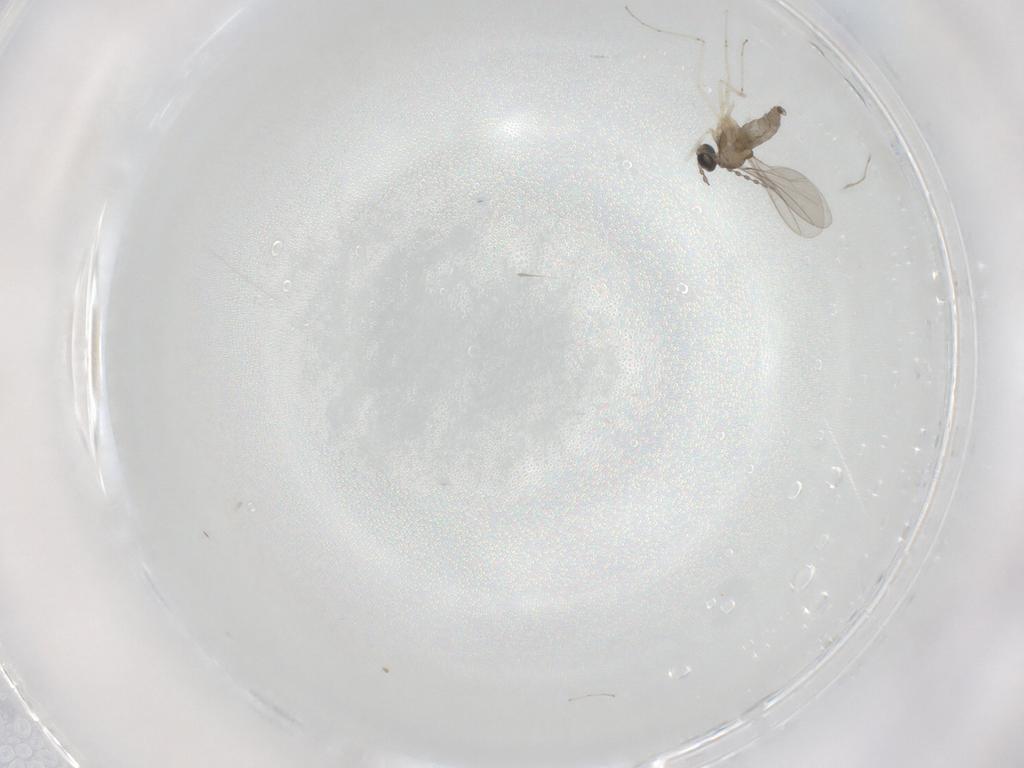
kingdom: Animalia
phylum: Arthropoda
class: Insecta
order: Diptera
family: Cecidomyiidae
